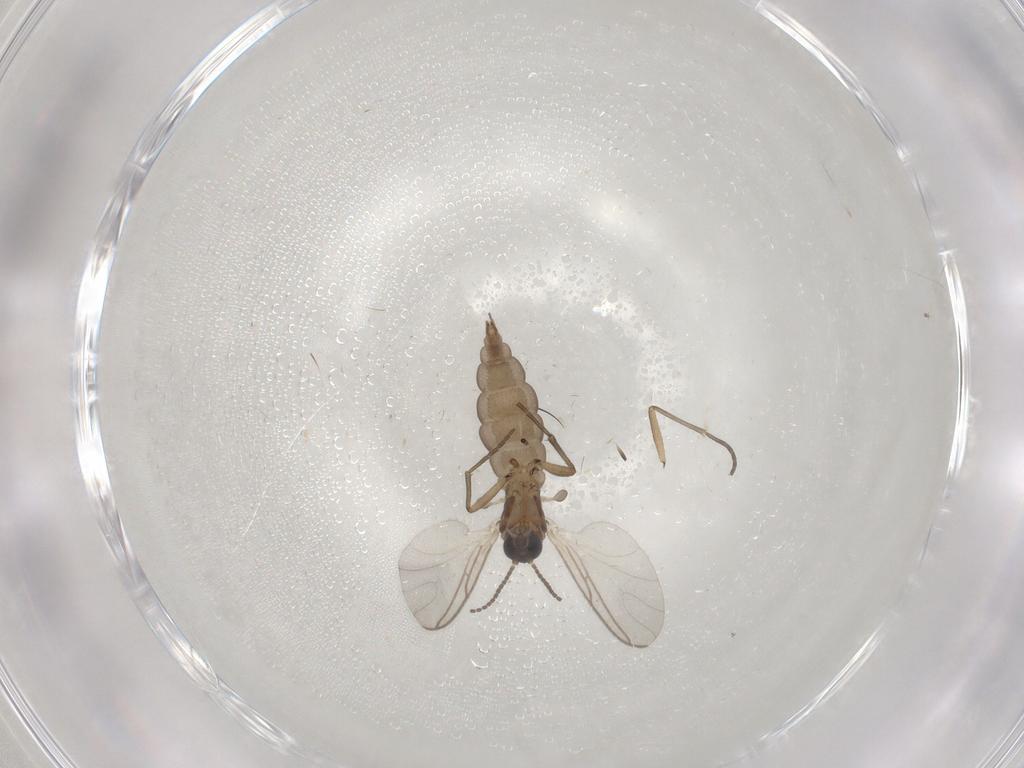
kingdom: Animalia
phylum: Arthropoda
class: Insecta
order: Diptera
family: Sciaridae
